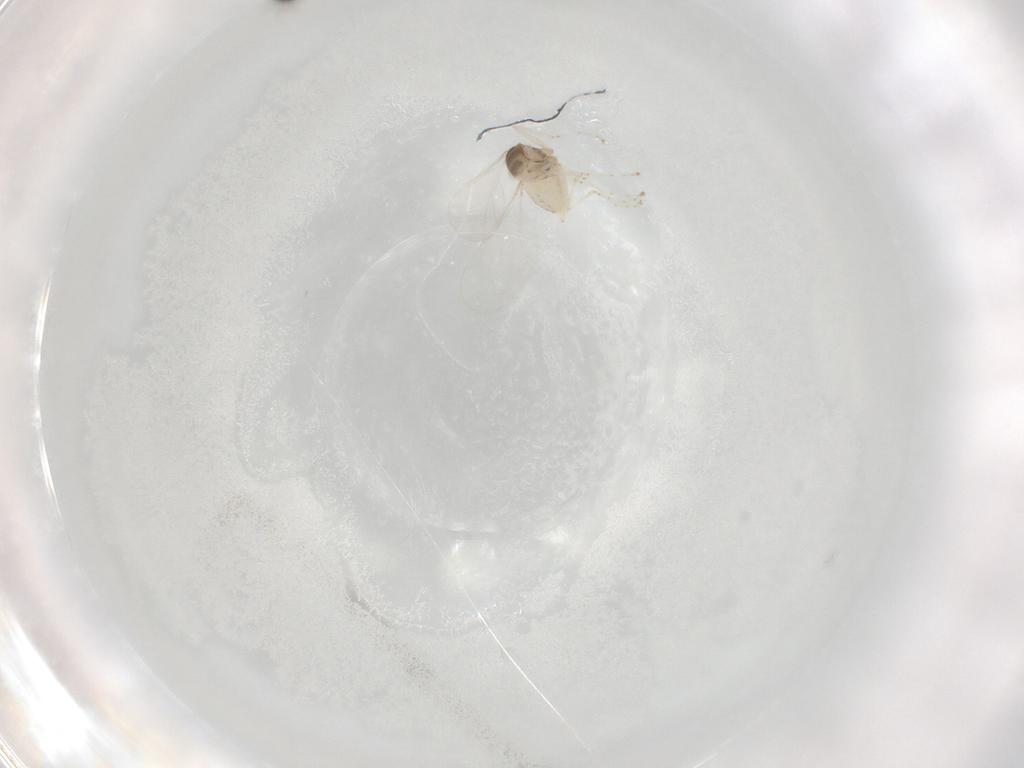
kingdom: Animalia
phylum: Arthropoda
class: Insecta
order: Diptera
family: Cecidomyiidae
